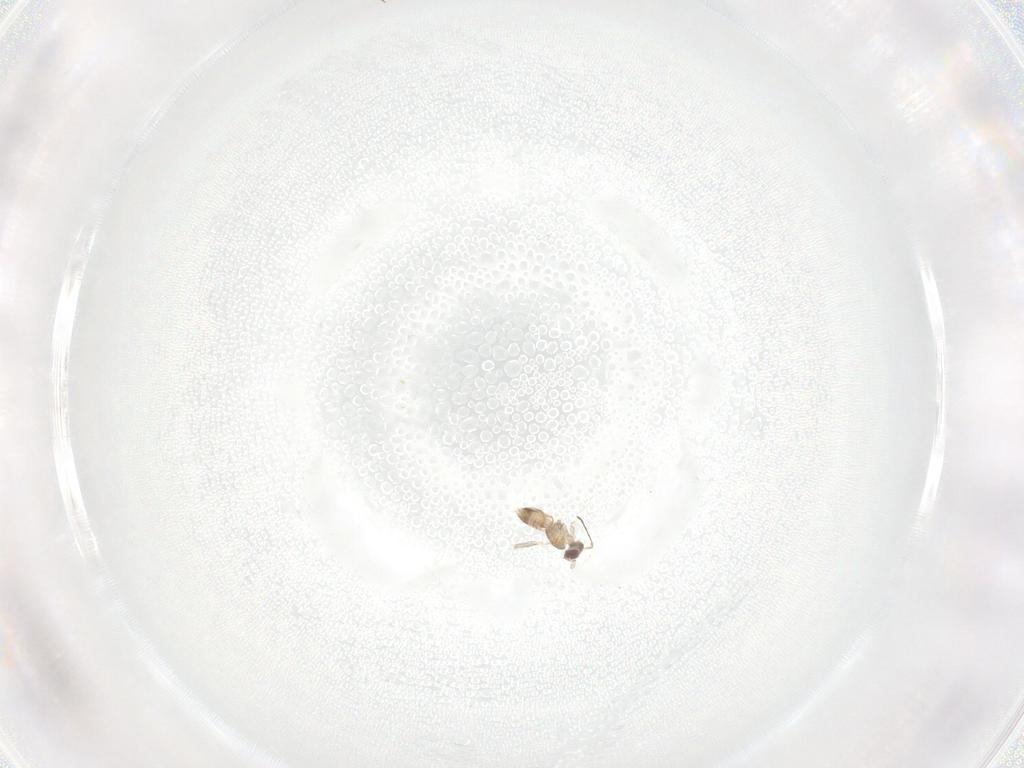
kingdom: Animalia
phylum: Arthropoda
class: Insecta
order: Hymenoptera
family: Mymaridae
